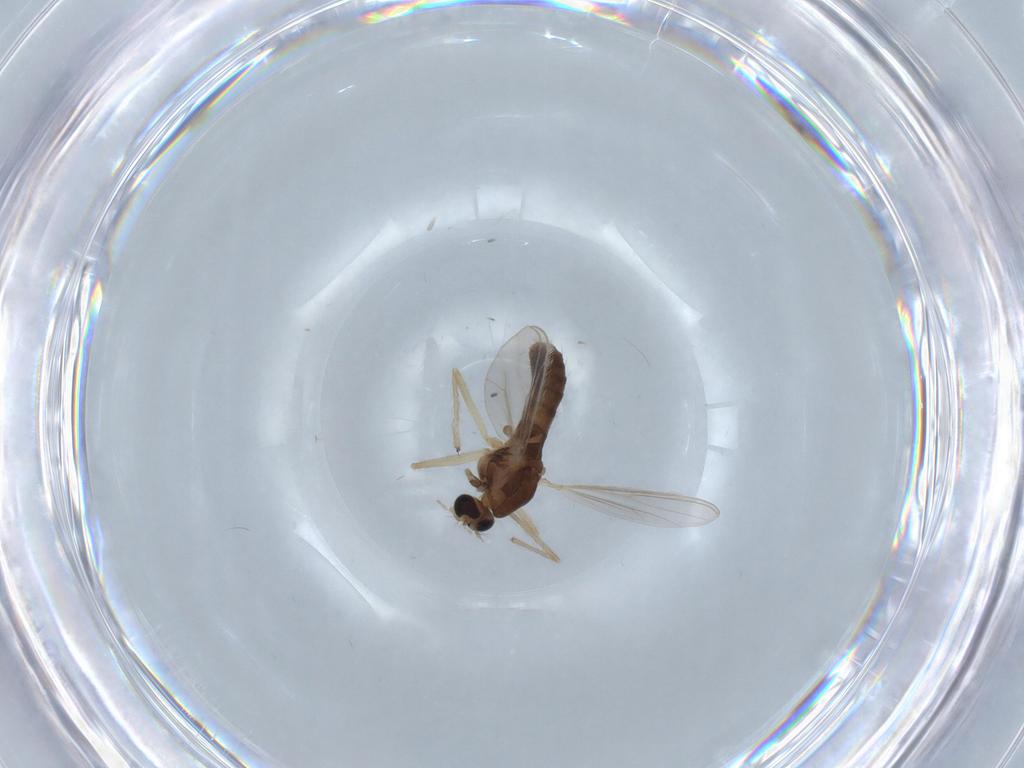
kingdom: Animalia
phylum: Arthropoda
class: Insecta
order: Diptera
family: Chironomidae
